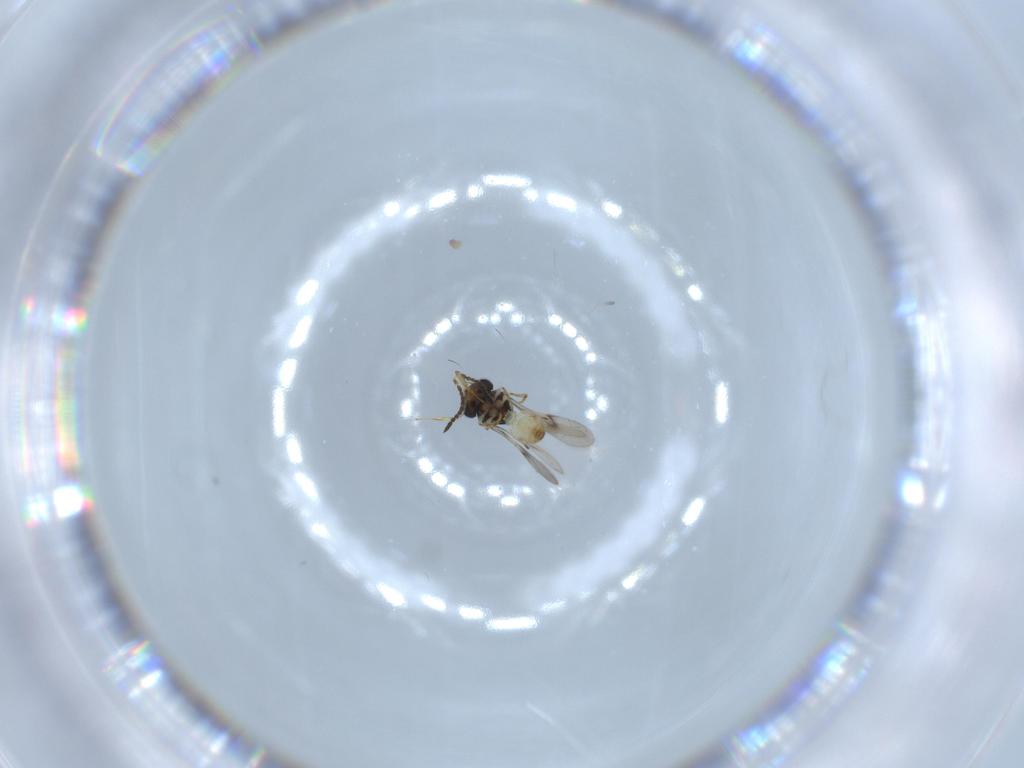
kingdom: Animalia
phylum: Arthropoda
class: Insecta
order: Hymenoptera
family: Scelionidae
